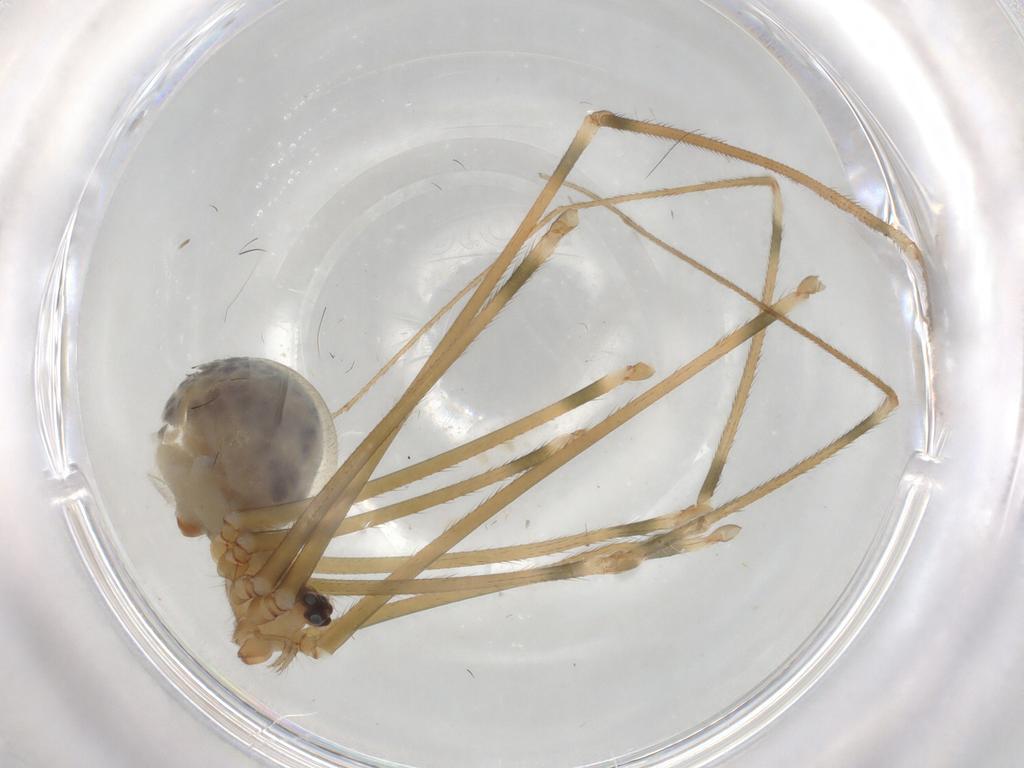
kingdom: Animalia
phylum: Arthropoda
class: Arachnida
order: Araneae
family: Pholcidae
